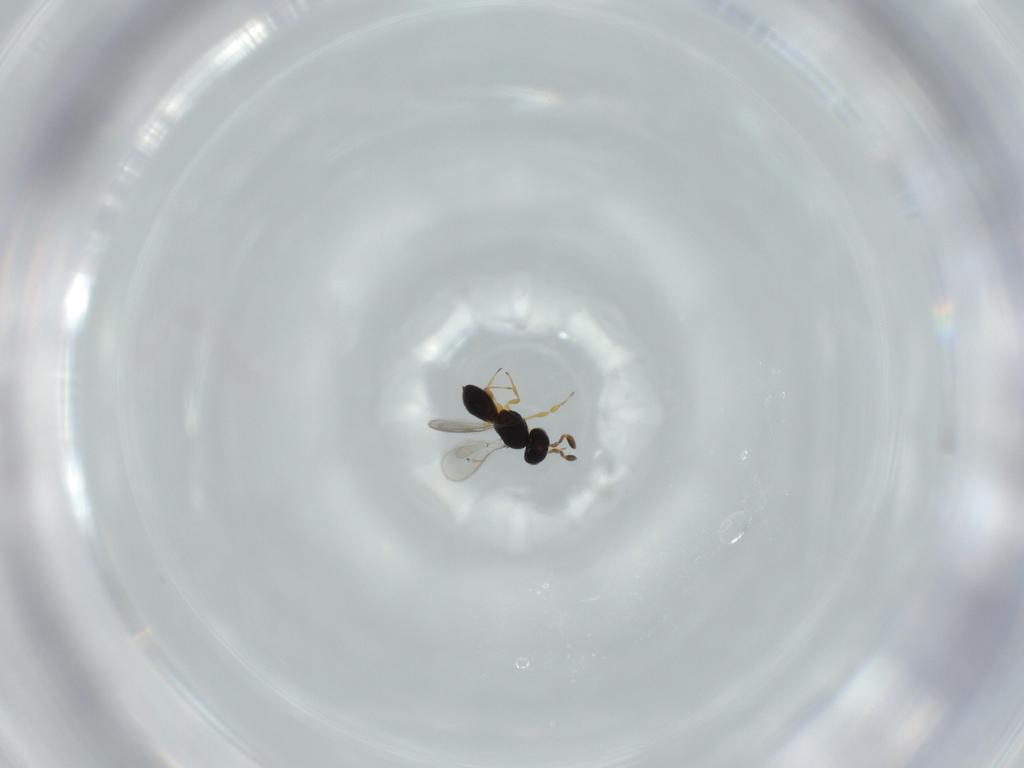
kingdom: Animalia
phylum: Arthropoda
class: Insecta
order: Hymenoptera
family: Scelionidae
